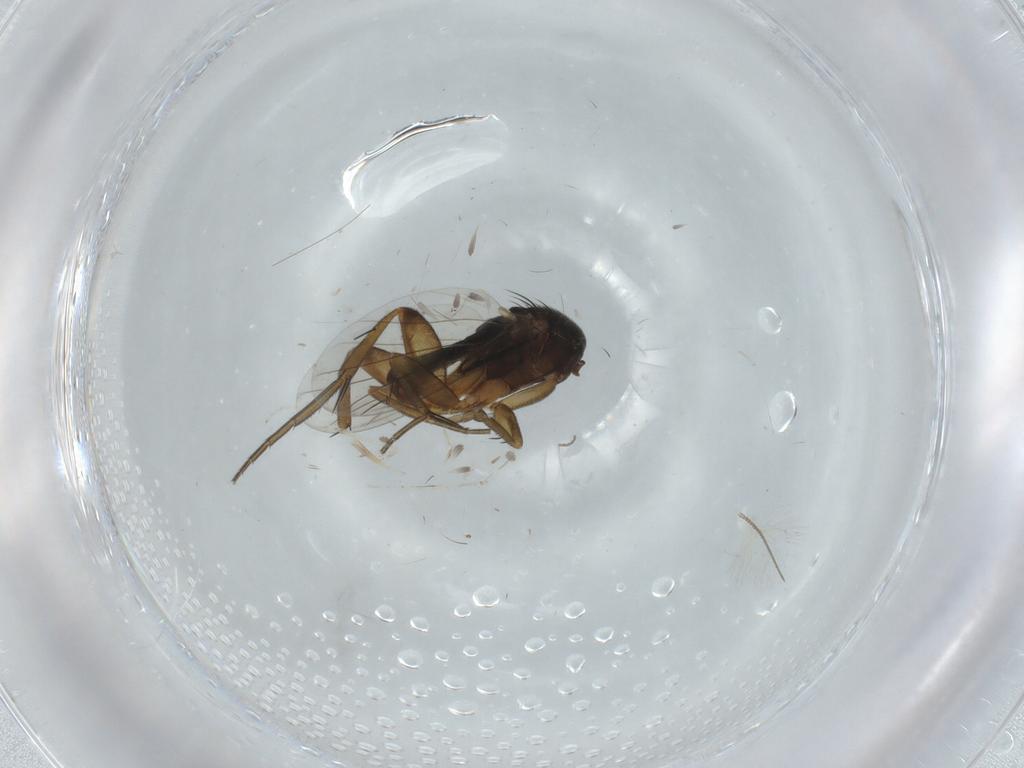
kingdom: Animalia
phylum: Arthropoda
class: Insecta
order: Diptera
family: Phoridae
